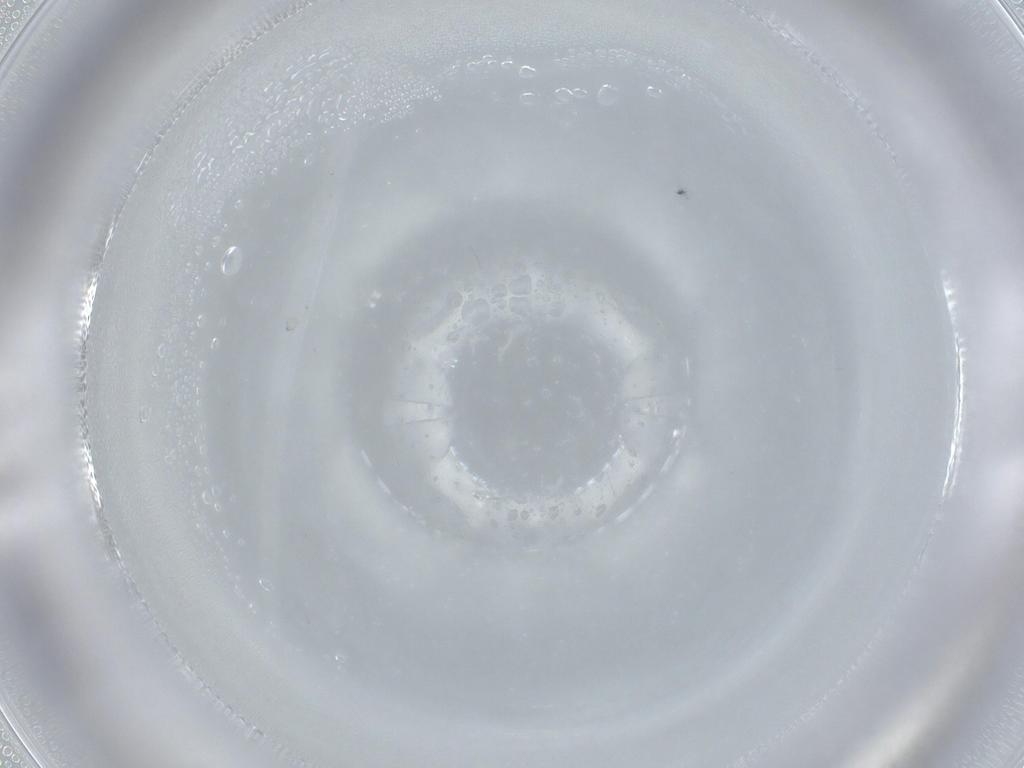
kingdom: Animalia
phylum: Arthropoda
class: Insecta
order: Diptera
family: Cecidomyiidae
